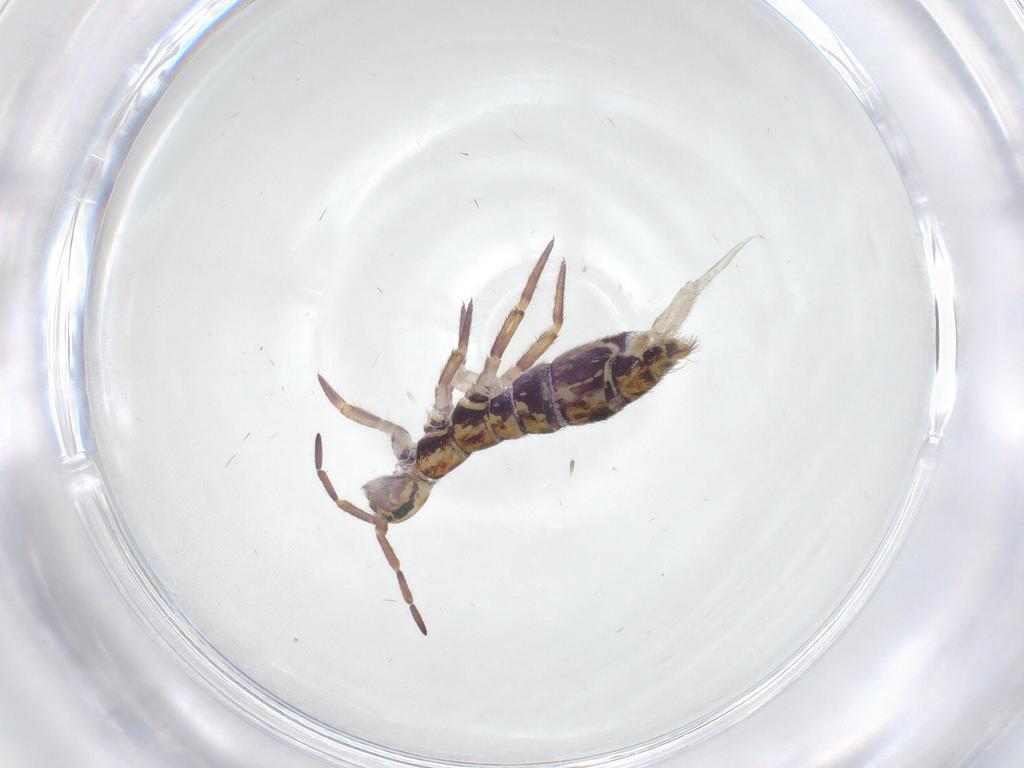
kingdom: Animalia
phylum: Arthropoda
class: Collembola
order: Entomobryomorpha
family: Isotomidae
